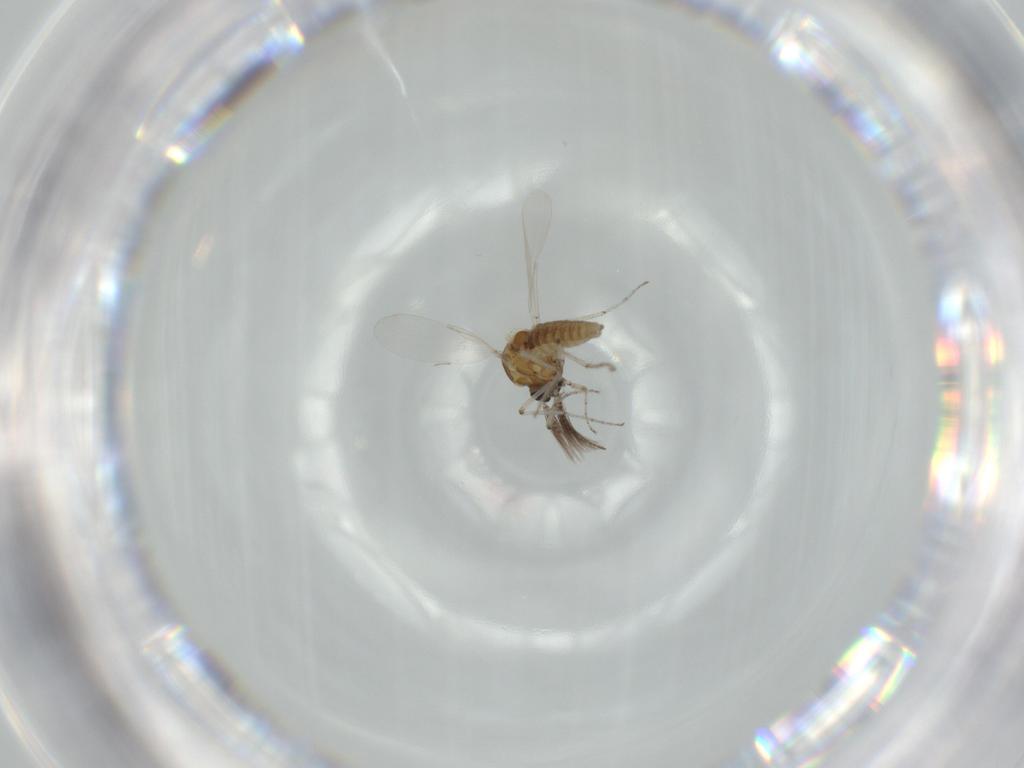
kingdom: Animalia
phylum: Arthropoda
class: Insecta
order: Diptera
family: Ceratopogonidae
